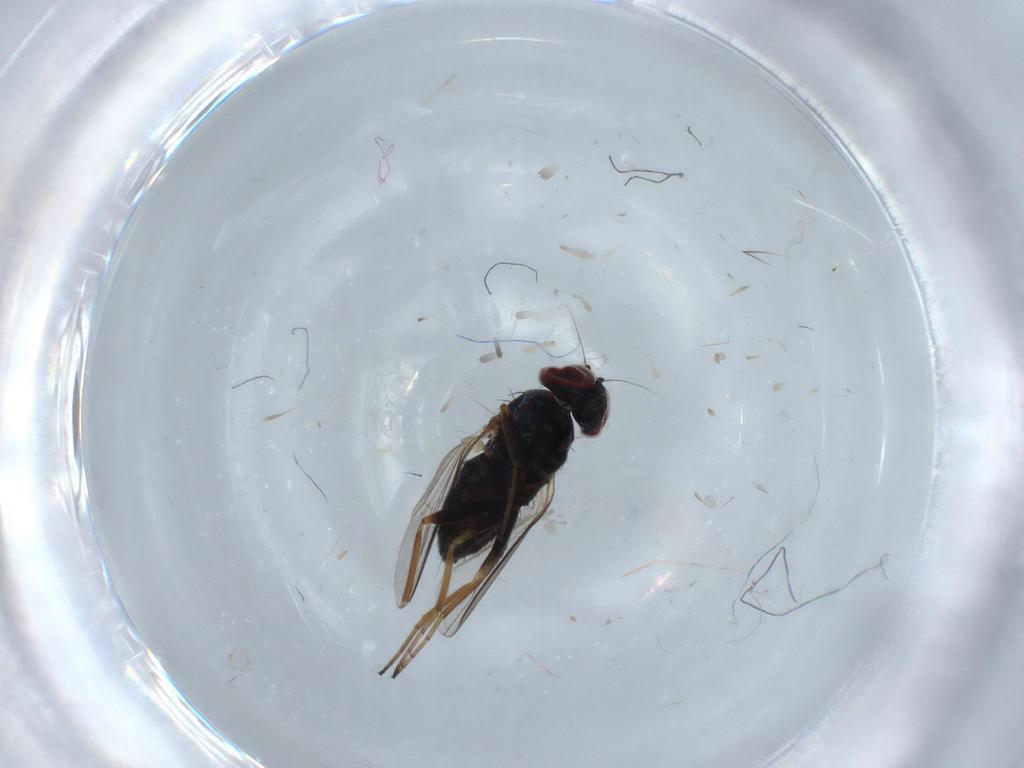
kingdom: Animalia
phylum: Arthropoda
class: Insecta
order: Diptera
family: Dolichopodidae
